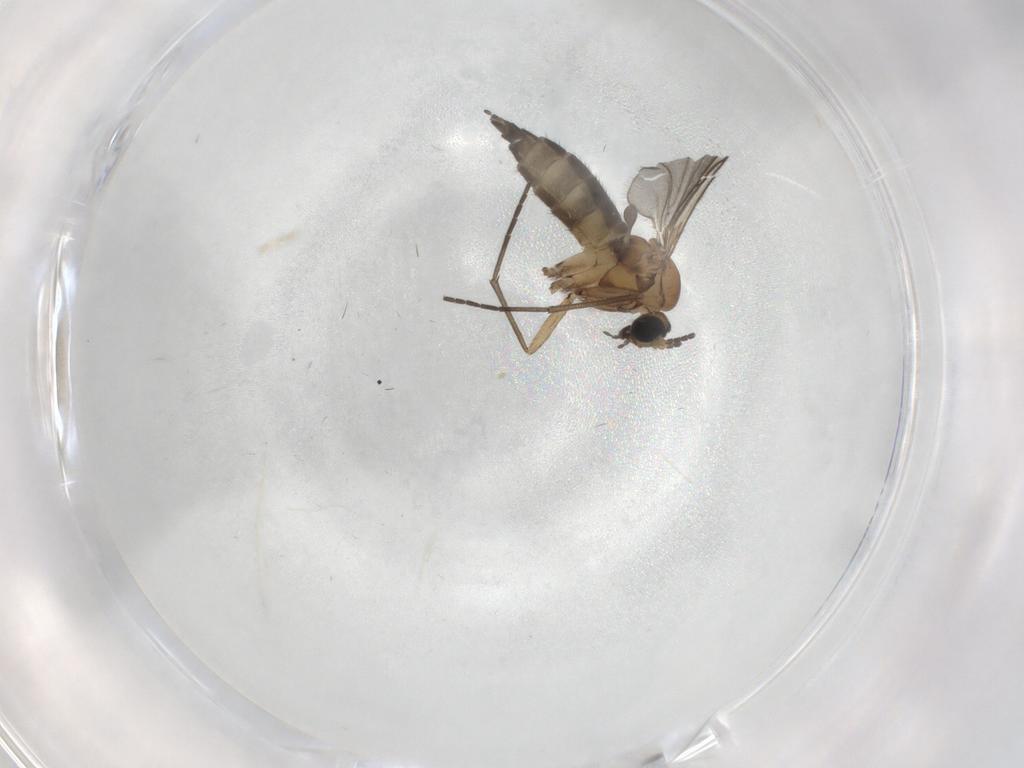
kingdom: Animalia
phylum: Arthropoda
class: Insecta
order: Diptera
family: Sciaridae
